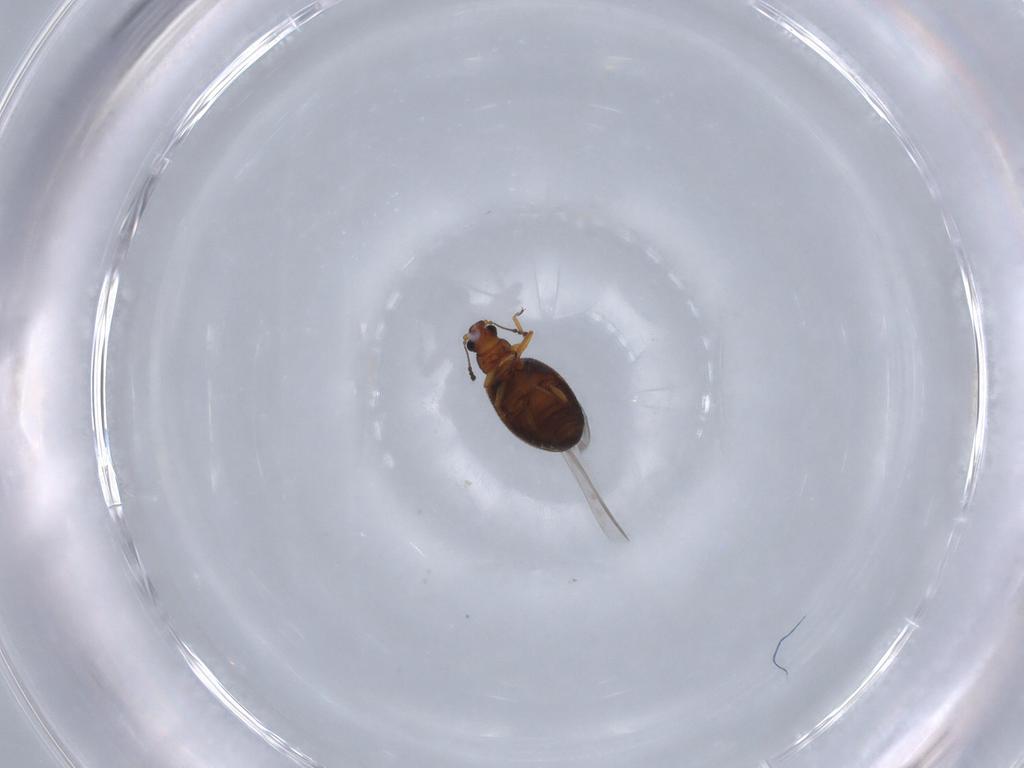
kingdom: Animalia
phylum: Arthropoda
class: Insecta
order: Coleoptera
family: Latridiidae
